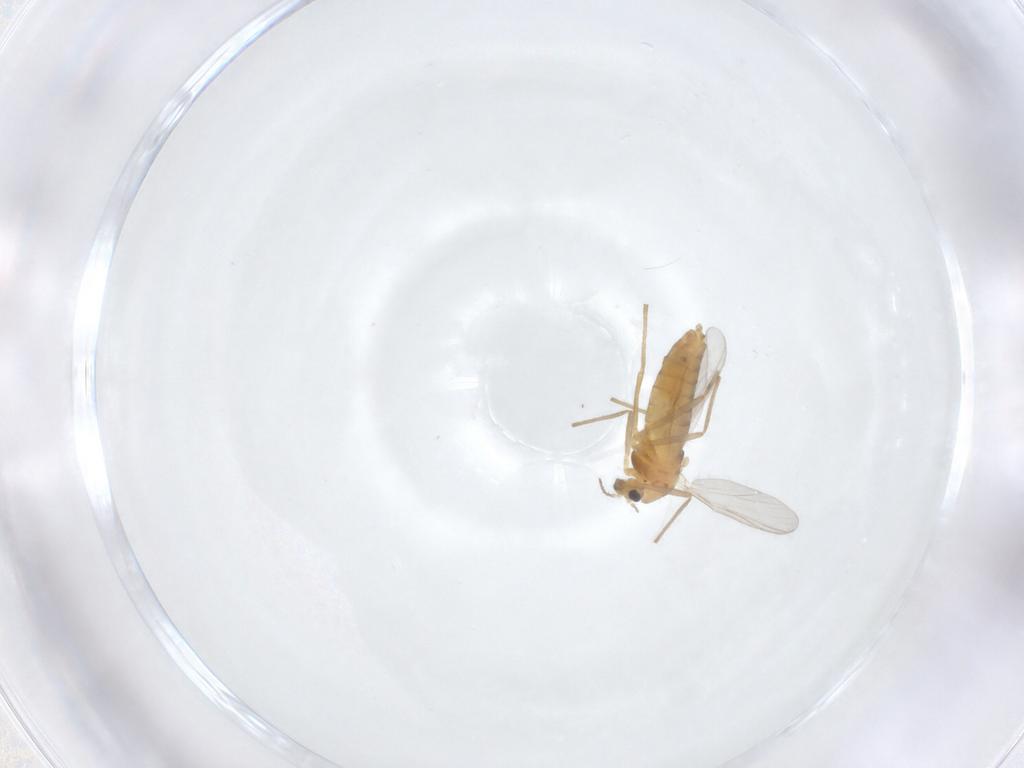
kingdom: Animalia
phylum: Arthropoda
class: Insecta
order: Diptera
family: Chironomidae
